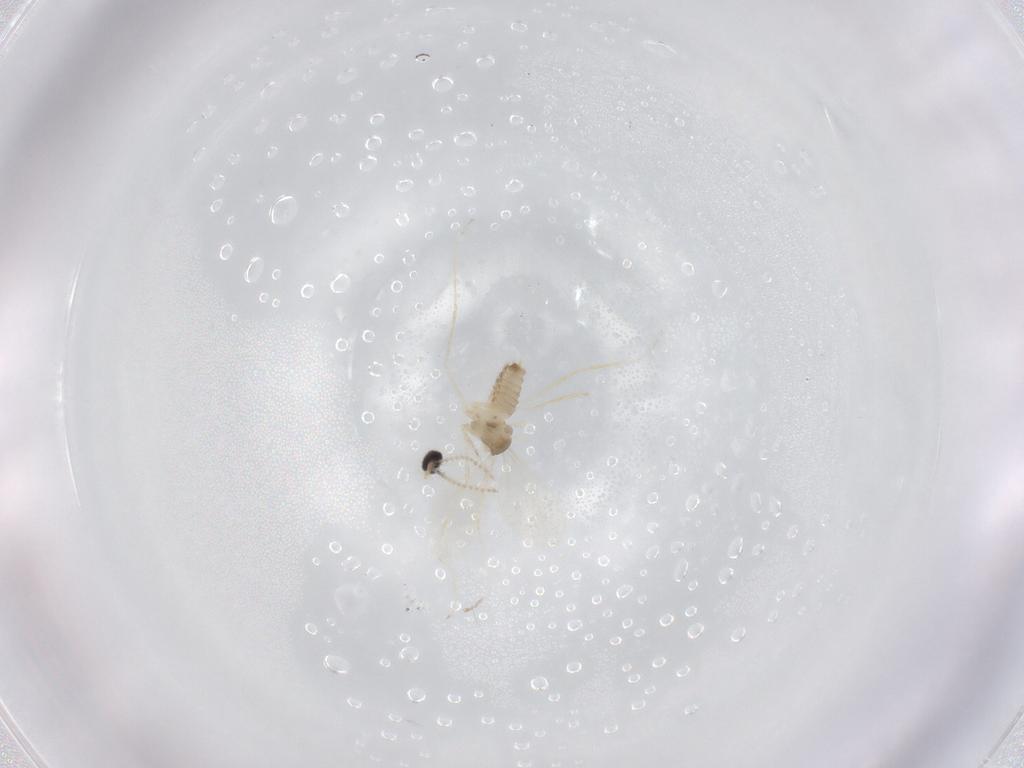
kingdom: Animalia
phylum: Arthropoda
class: Insecta
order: Diptera
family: Cecidomyiidae
